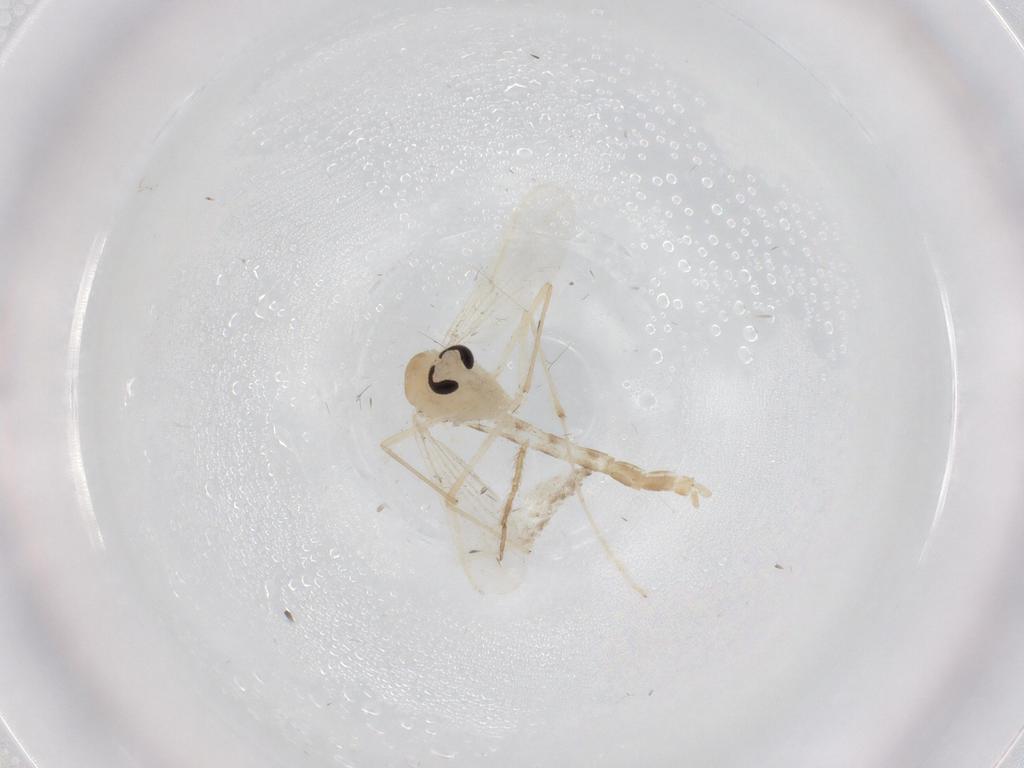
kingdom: Animalia
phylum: Arthropoda
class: Insecta
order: Diptera
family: Chironomidae
